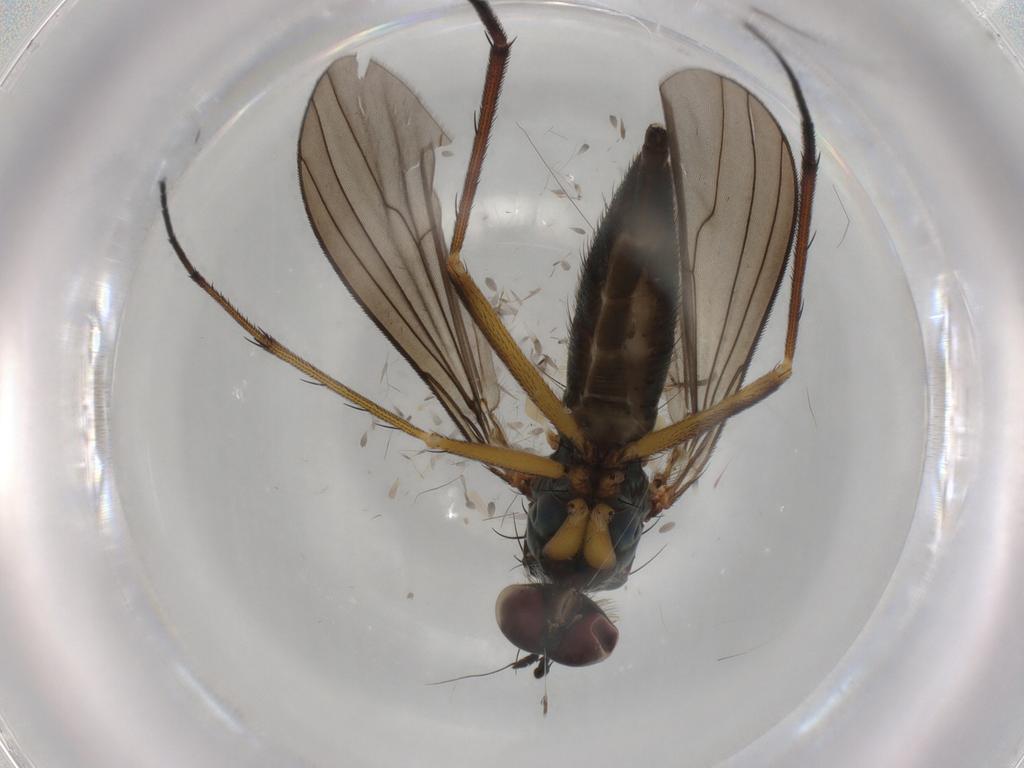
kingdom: Animalia
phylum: Arthropoda
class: Insecta
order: Diptera
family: Dolichopodidae
